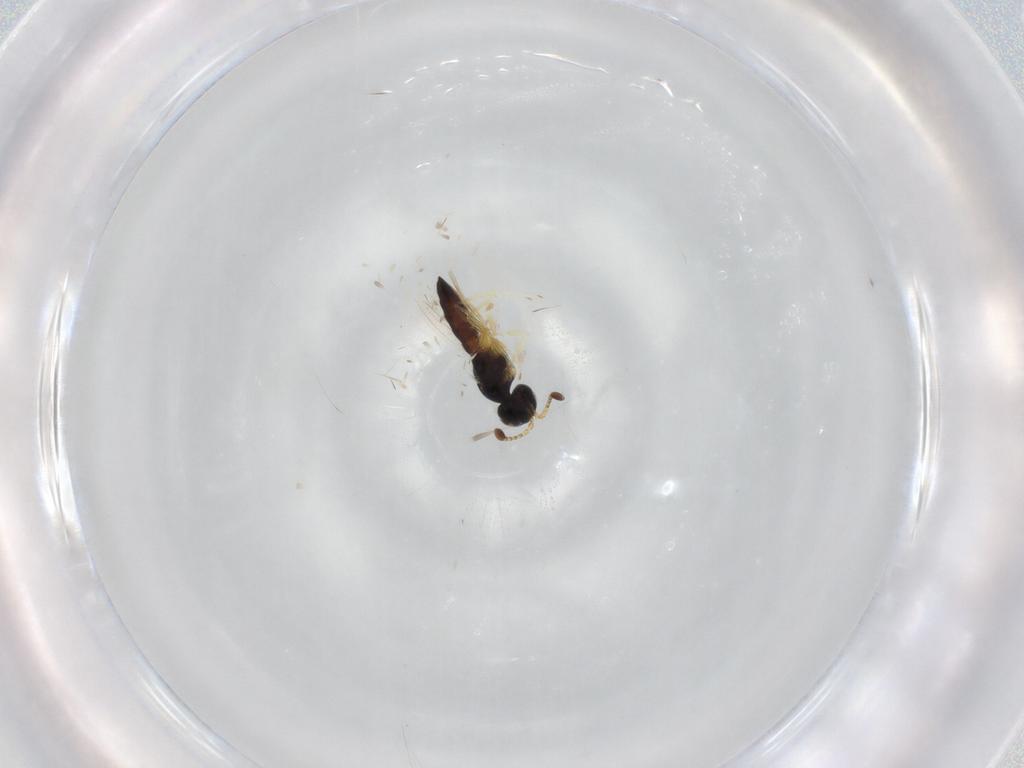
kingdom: Animalia
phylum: Arthropoda
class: Insecta
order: Hymenoptera
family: Scelionidae
